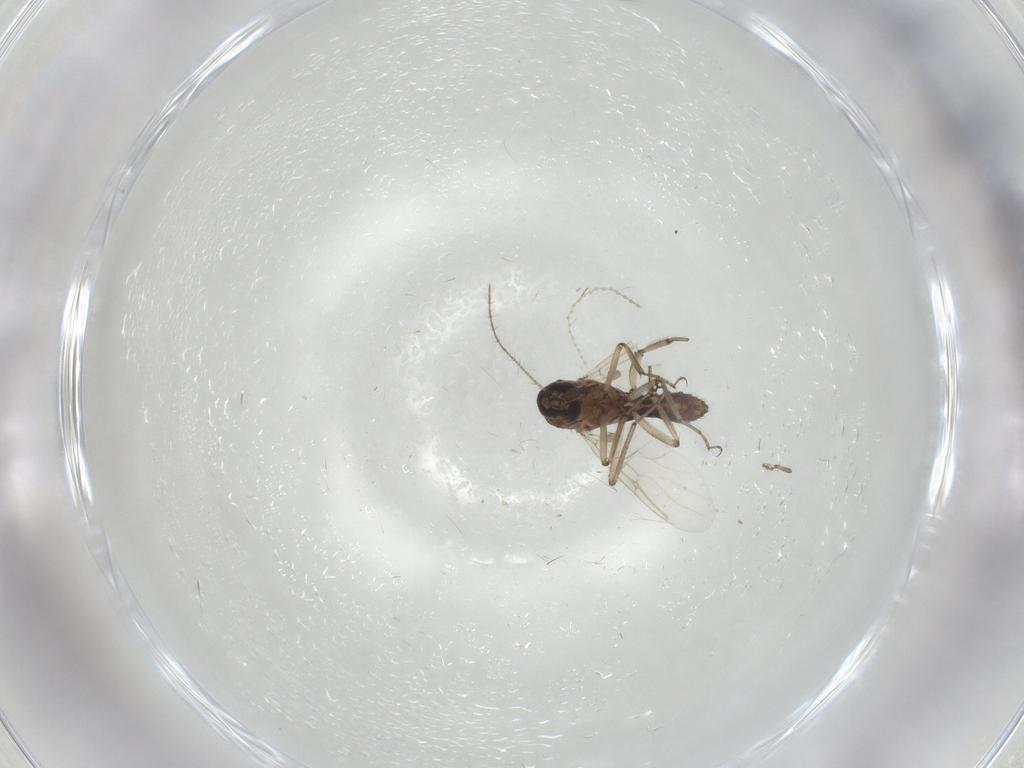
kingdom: Animalia
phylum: Arthropoda
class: Insecta
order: Diptera
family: Ceratopogonidae
